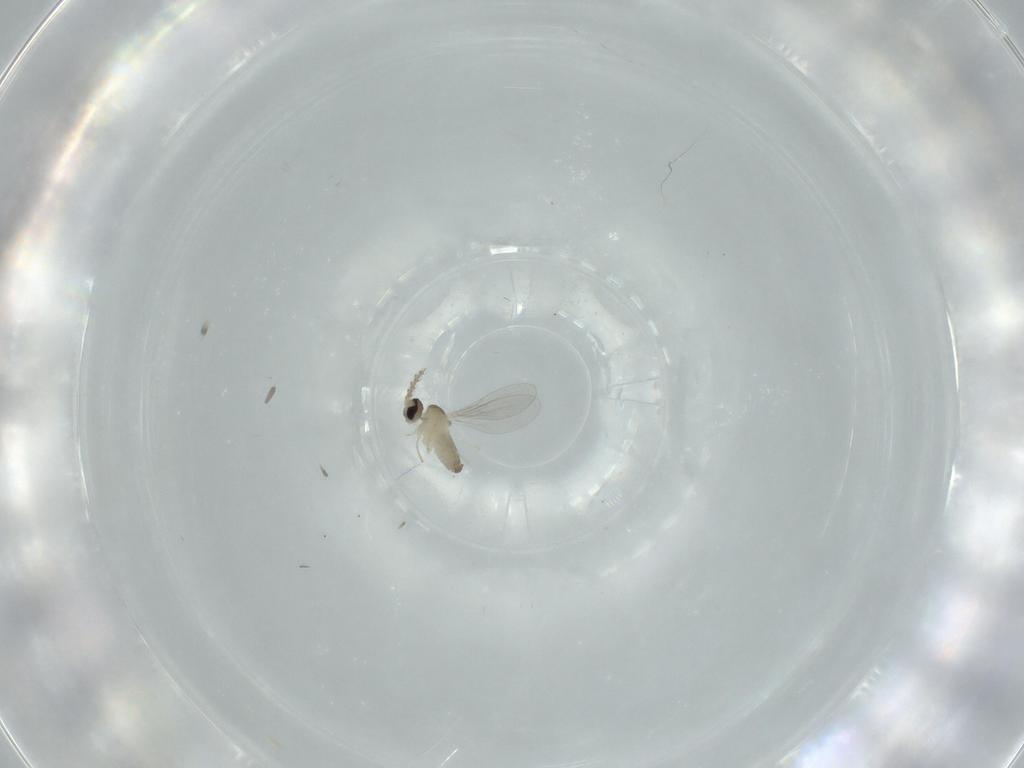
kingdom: Animalia
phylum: Arthropoda
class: Insecta
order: Diptera
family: Cecidomyiidae
